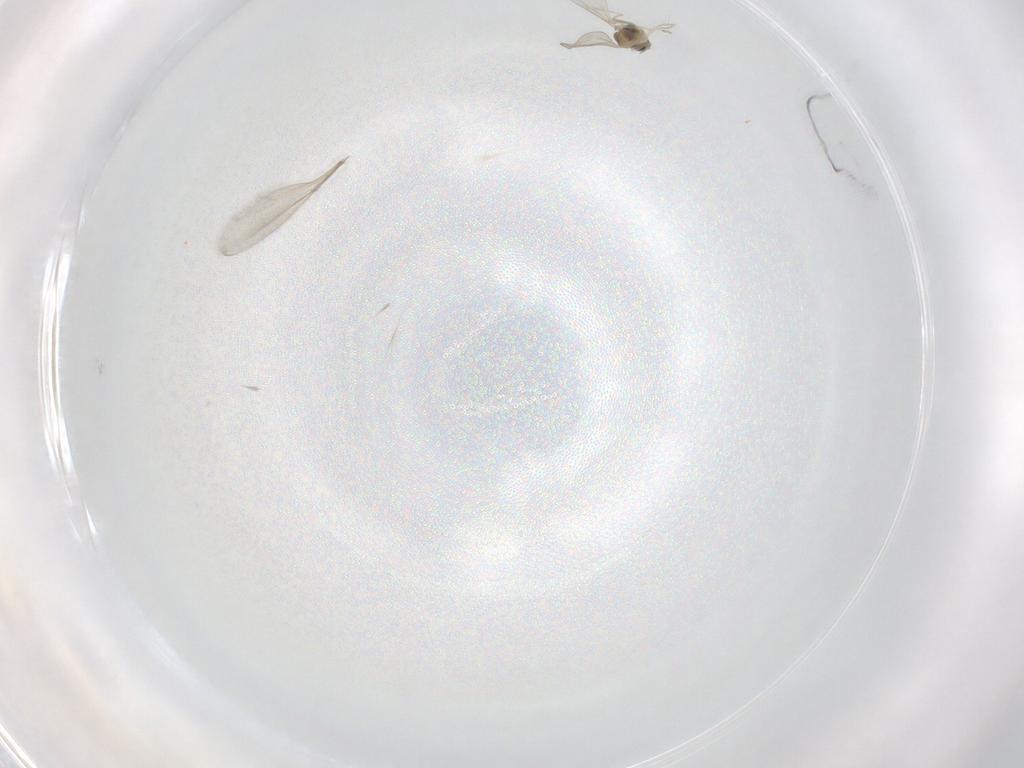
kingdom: Animalia
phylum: Arthropoda
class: Insecta
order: Diptera
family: Cecidomyiidae
